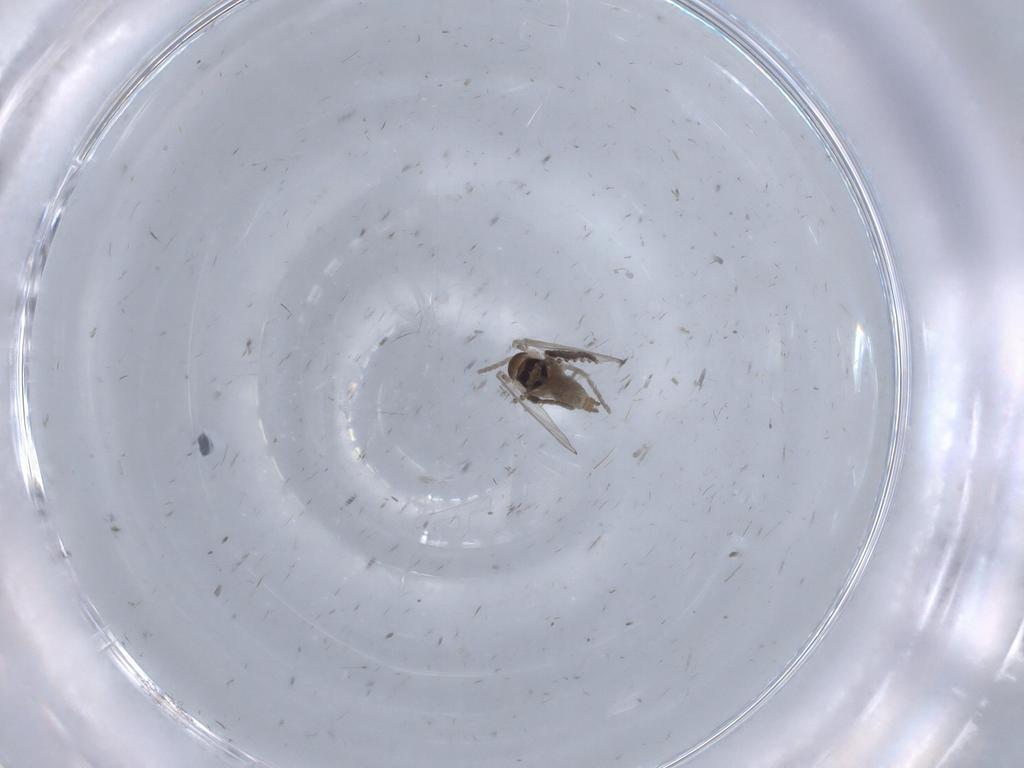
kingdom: Animalia
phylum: Arthropoda
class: Insecta
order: Diptera
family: Psychodidae
